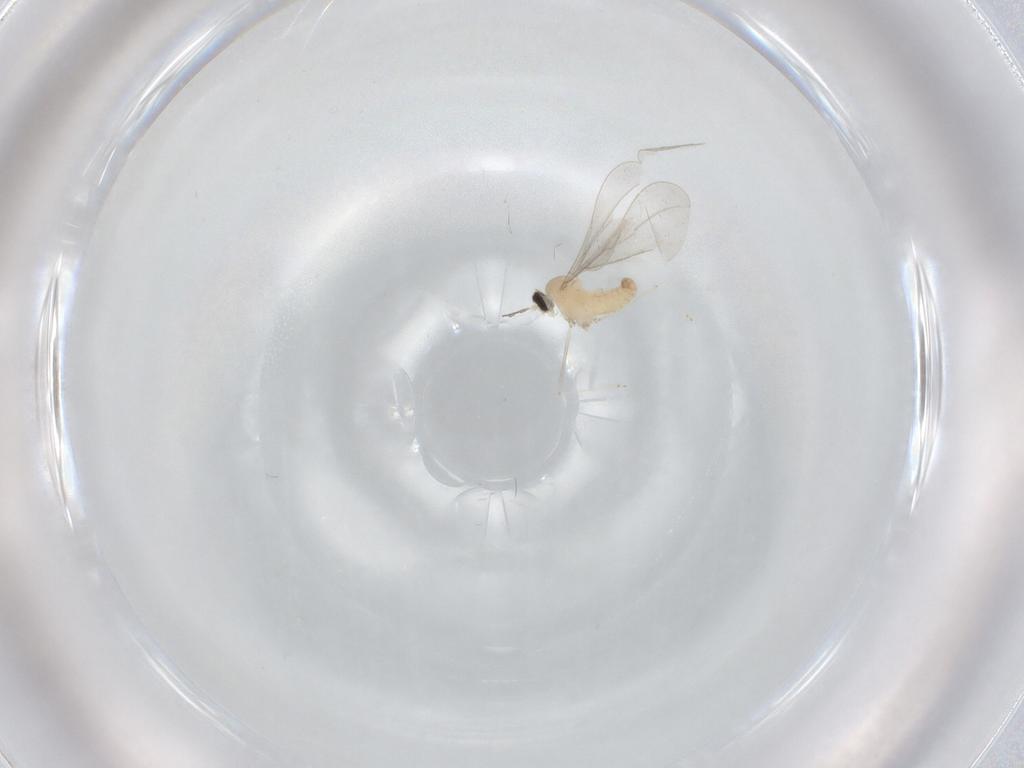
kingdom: Animalia
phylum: Arthropoda
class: Insecta
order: Diptera
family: Cecidomyiidae
